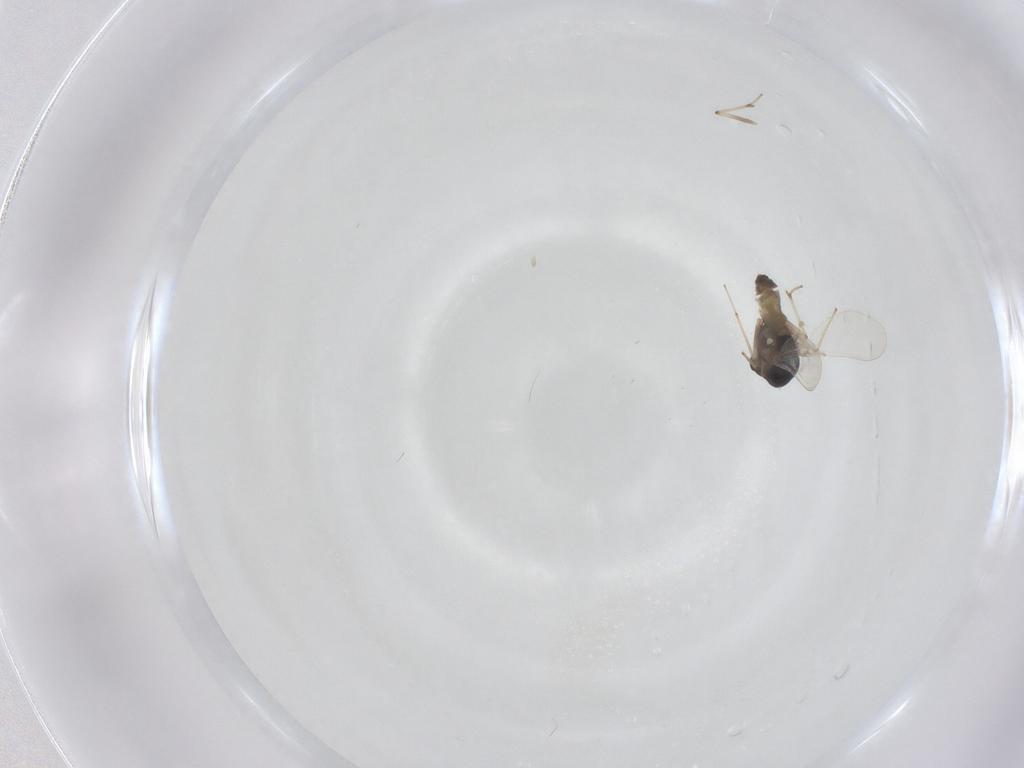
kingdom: Animalia
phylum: Arthropoda
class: Insecta
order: Diptera
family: Chironomidae
